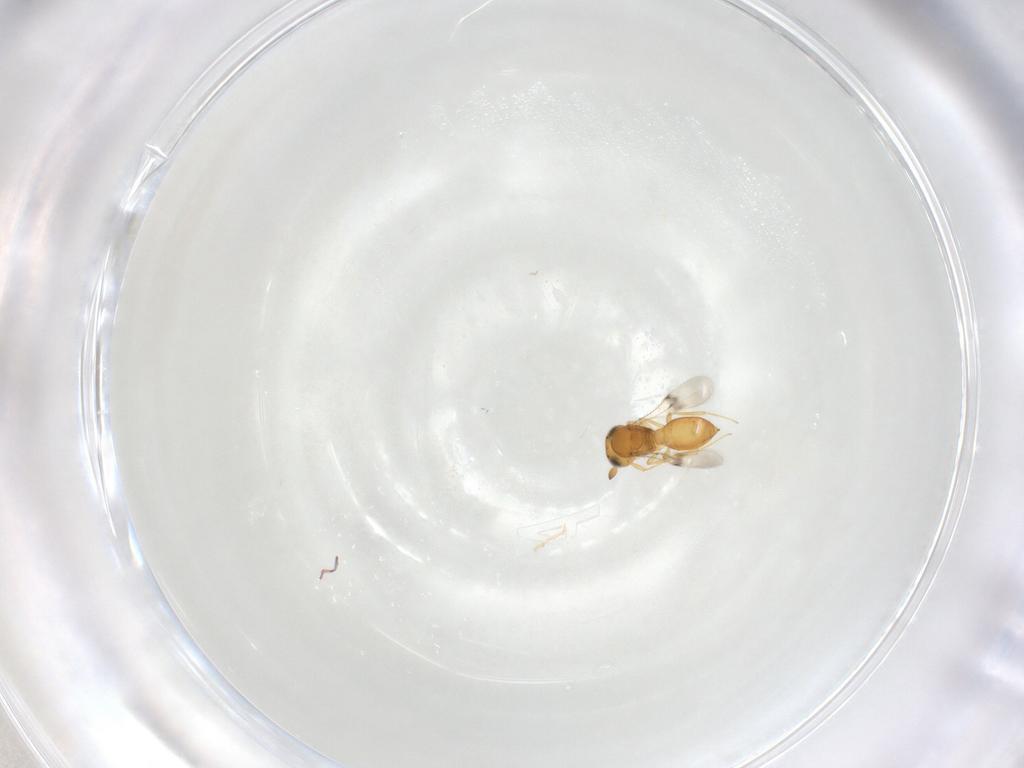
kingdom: Animalia
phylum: Arthropoda
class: Insecta
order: Hymenoptera
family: Scelionidae
